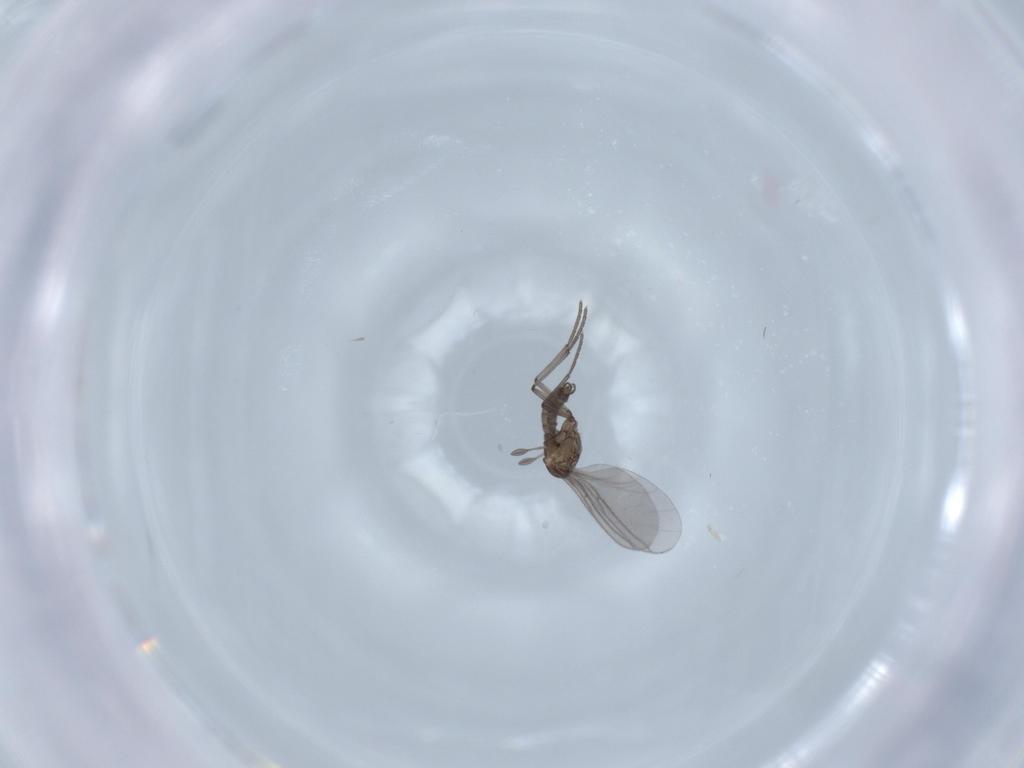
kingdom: Animalia
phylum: Arthropoda
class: Insecta
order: Diptera
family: Sciaridae
